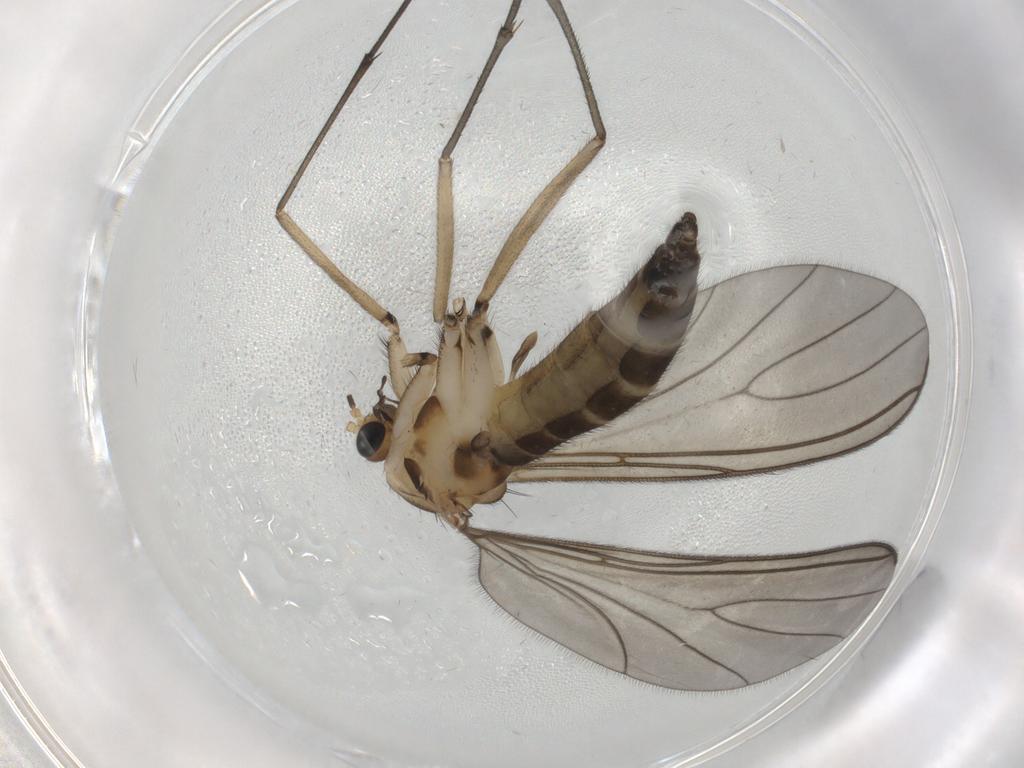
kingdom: Animalia
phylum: Arthropoda
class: Insecta
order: Diptera
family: Sciaridae
